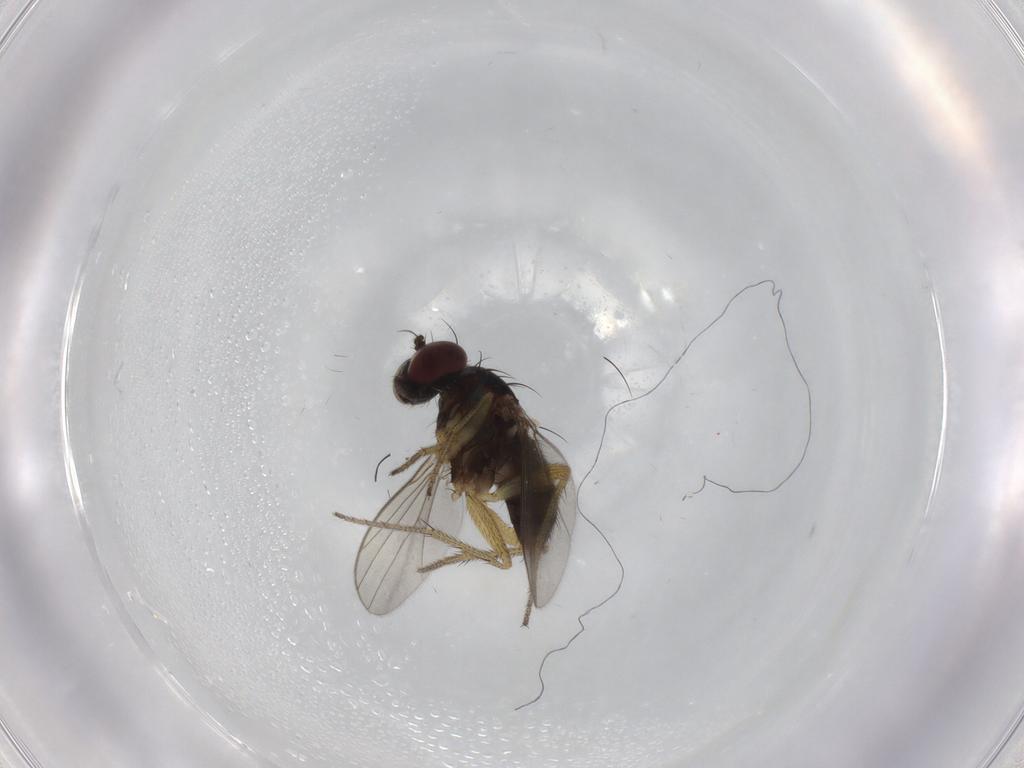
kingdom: Animalia
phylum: Arthropoda
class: Insecta
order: Diptera
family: Dolichopodidae
